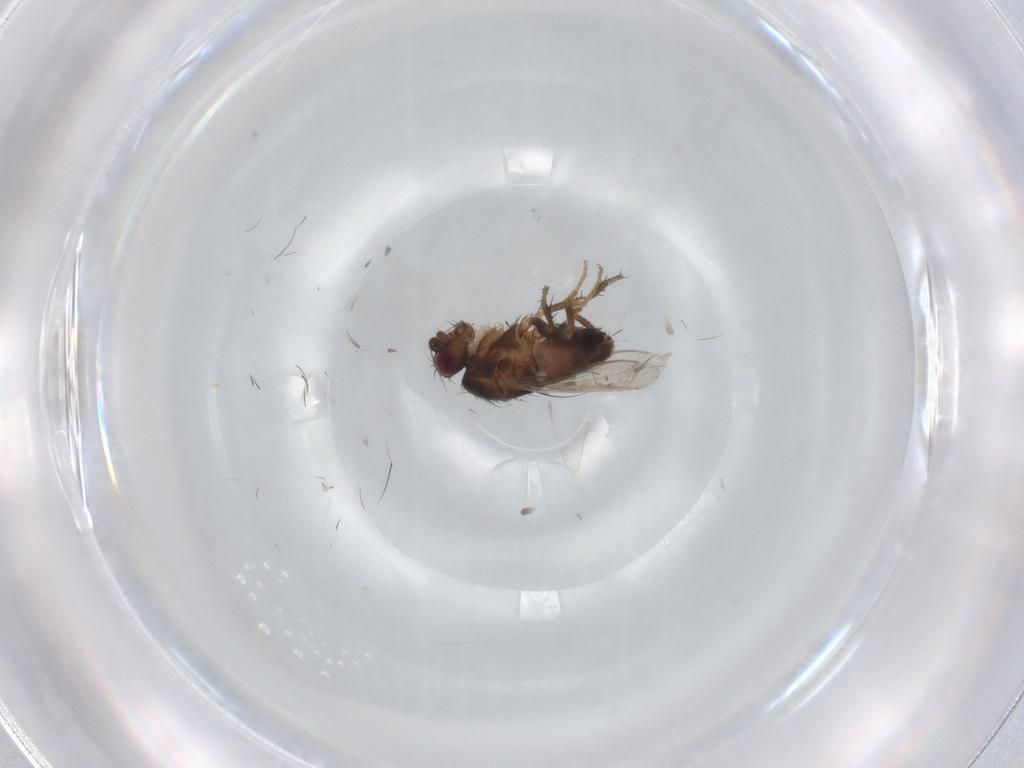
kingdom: Animalia
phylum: Arthropoda
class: Insecta
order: Diptera
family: Sphaeroceridae
